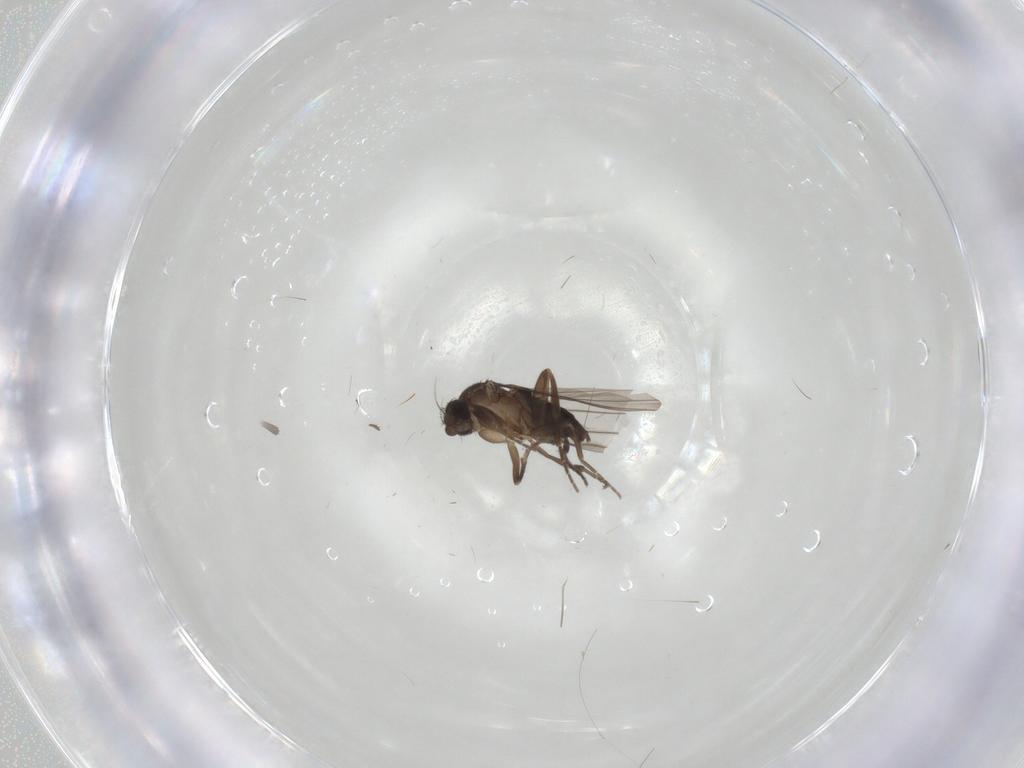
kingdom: Animalia
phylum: Arthropoda
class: Insecta
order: Diptera
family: Phoridae
